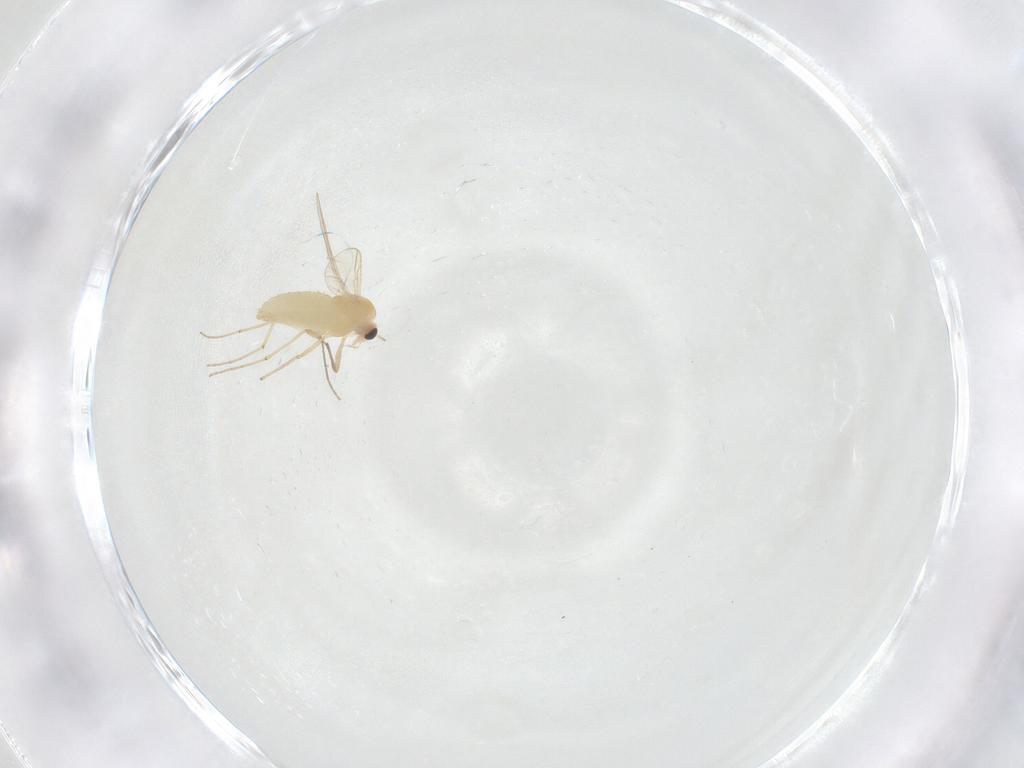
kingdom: Animalia
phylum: Arthropoda
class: Insecta
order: Diptera
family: Chironomidae
